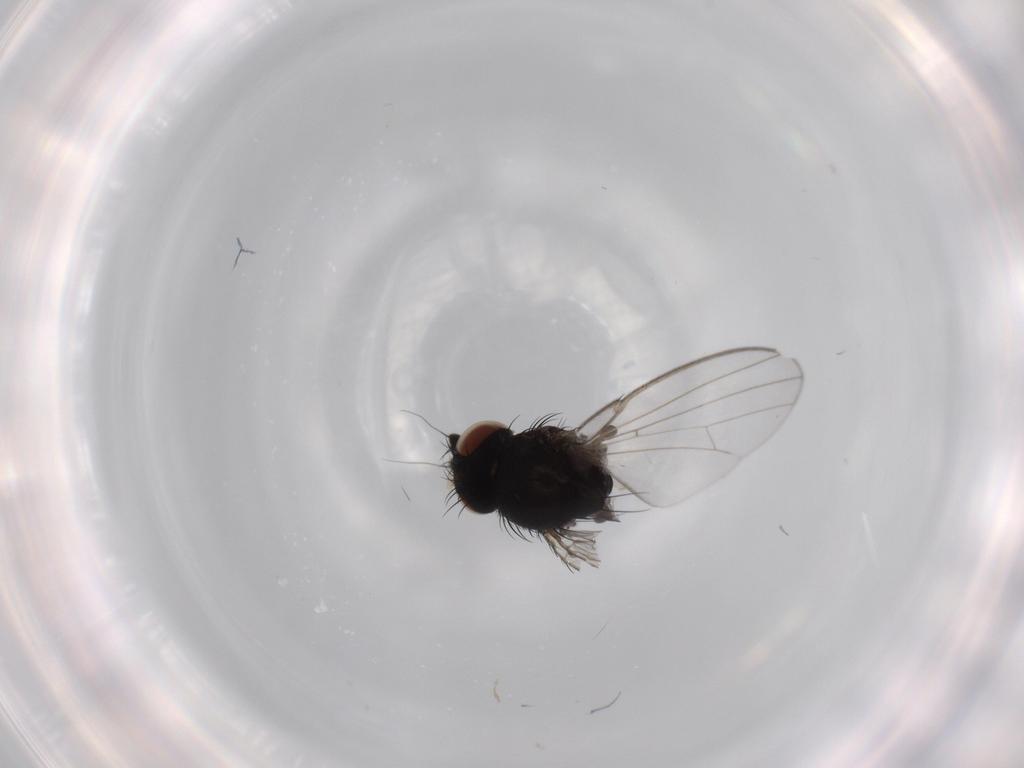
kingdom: Animalia
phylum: Arthropoda
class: Insecta
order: Diptera
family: Milichiidae
